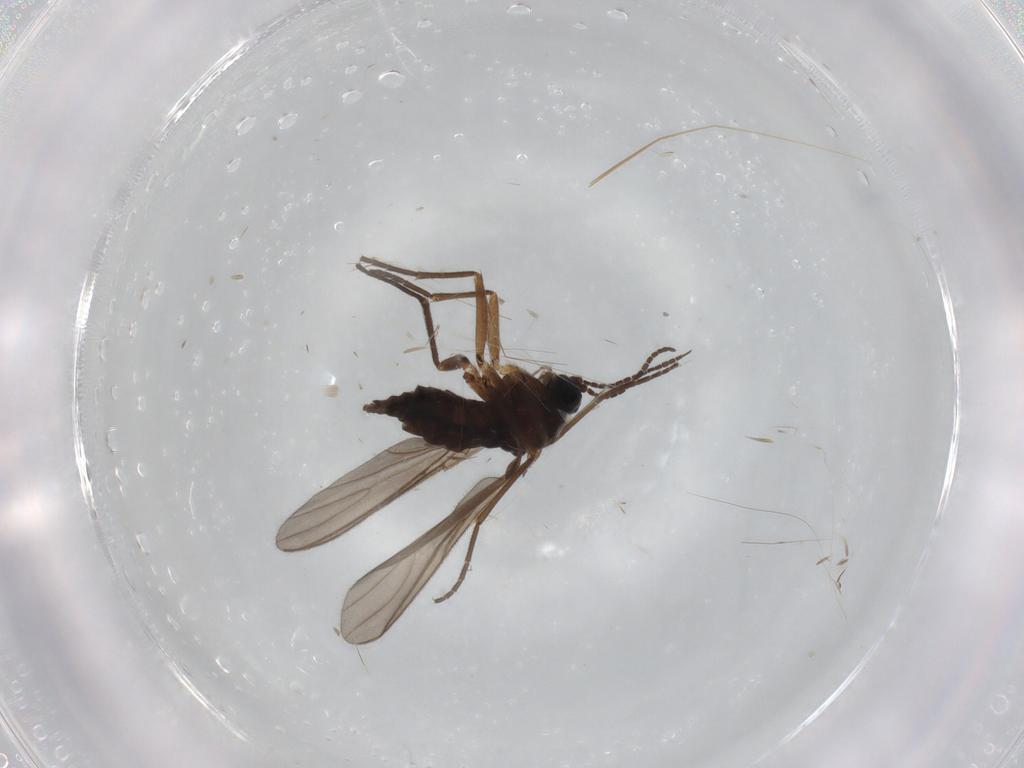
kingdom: Animalia
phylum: Arthropoda
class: Insecta
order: Diptera
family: Sciaridae
